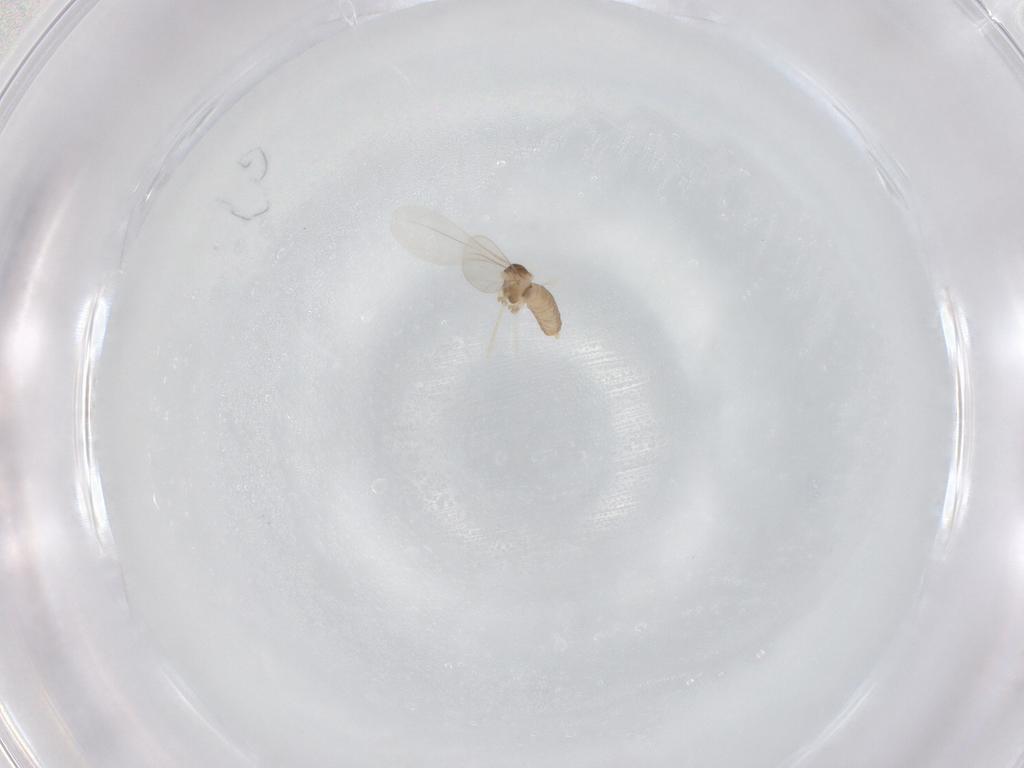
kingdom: Animalia
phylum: Arthropoda
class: Insecta
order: Diptera
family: Cecidomyiidae
